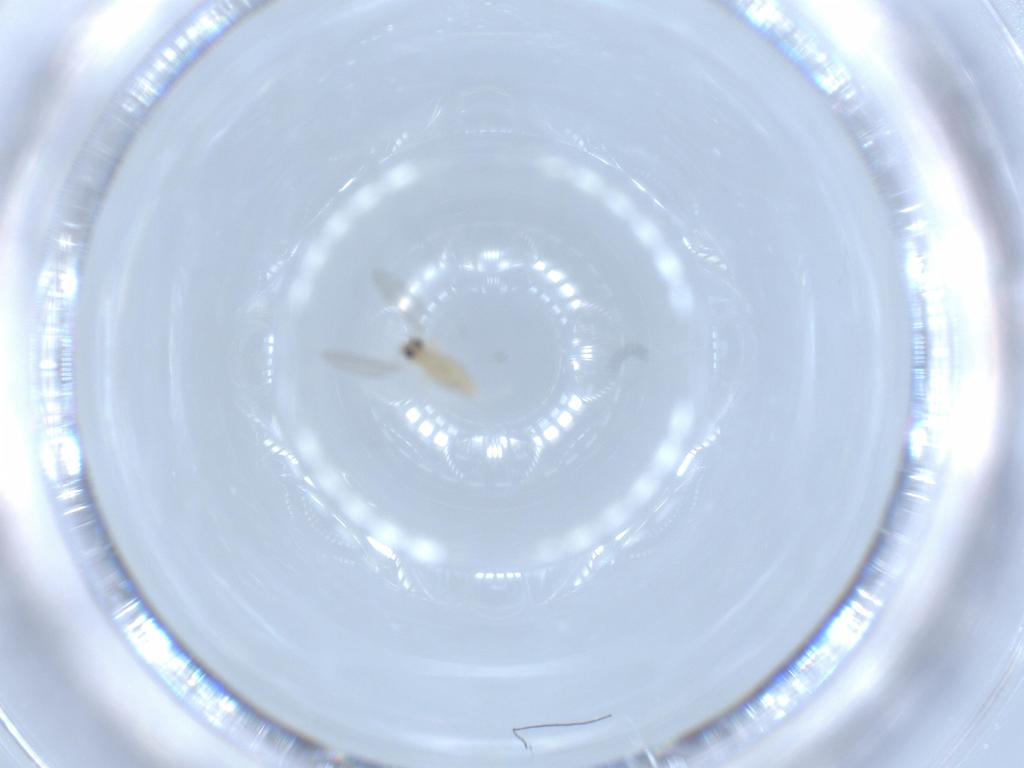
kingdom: Animalia
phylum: Arthropoda
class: Insecta
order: Diptera
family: Cecidomyiidae
